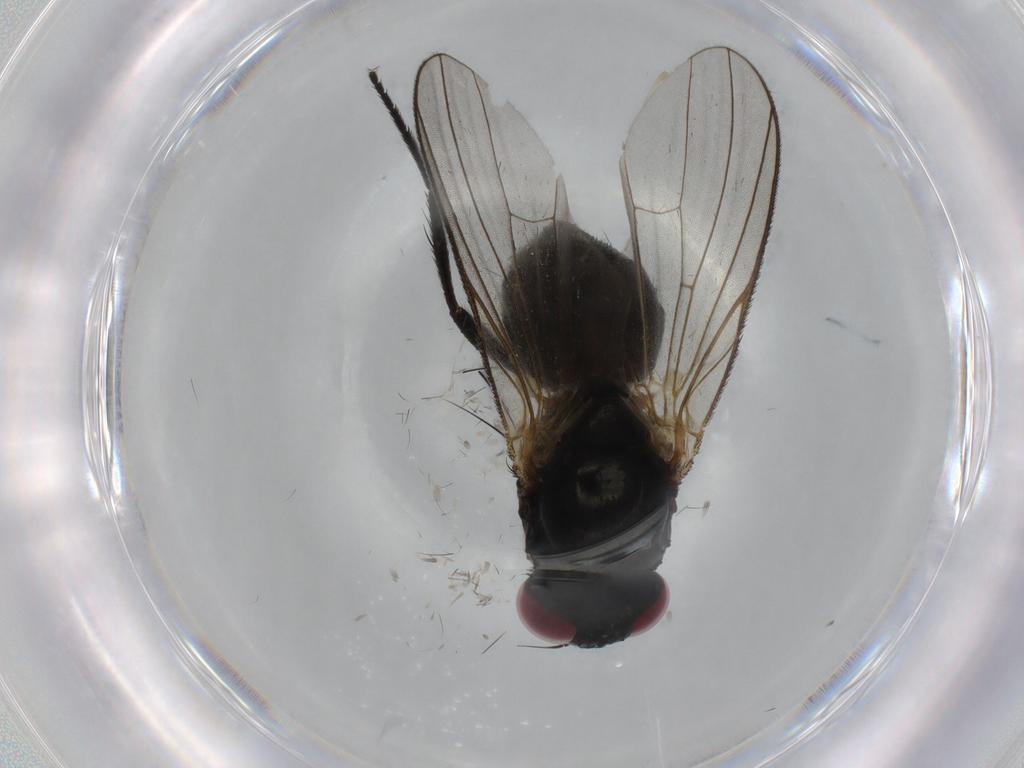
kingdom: Animalia
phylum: Arthropoda
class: Insecta
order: Diptera
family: Fannia
